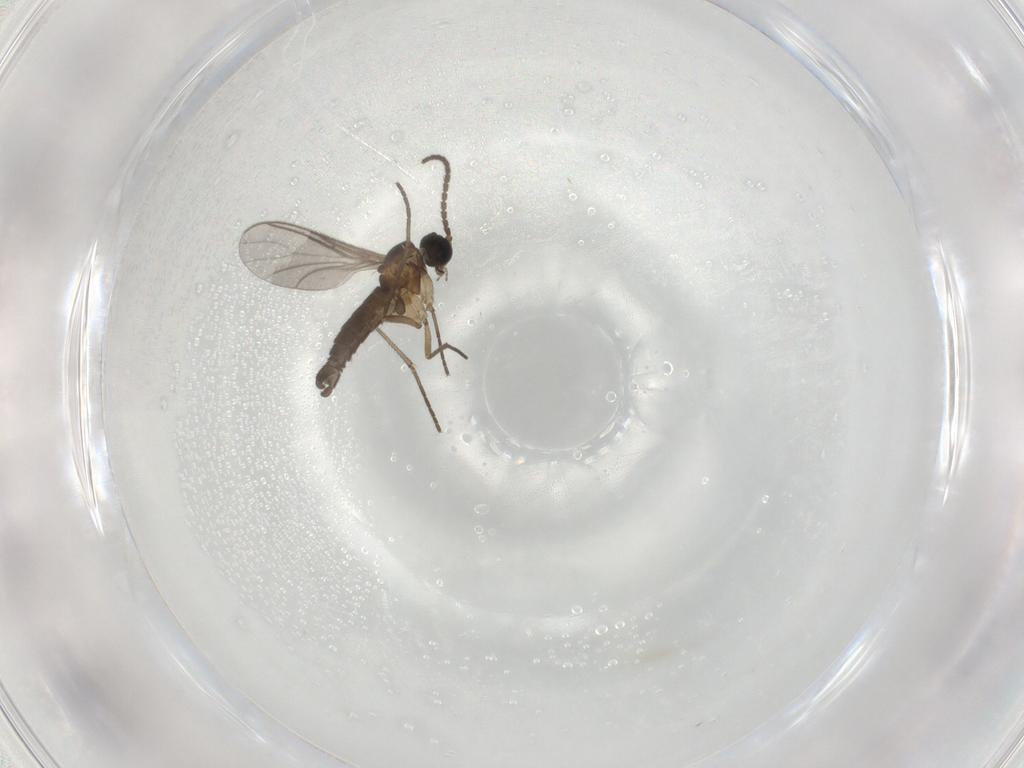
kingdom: Animalia
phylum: Arthropoda
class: Insecta
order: Diptera
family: Sciaridae
